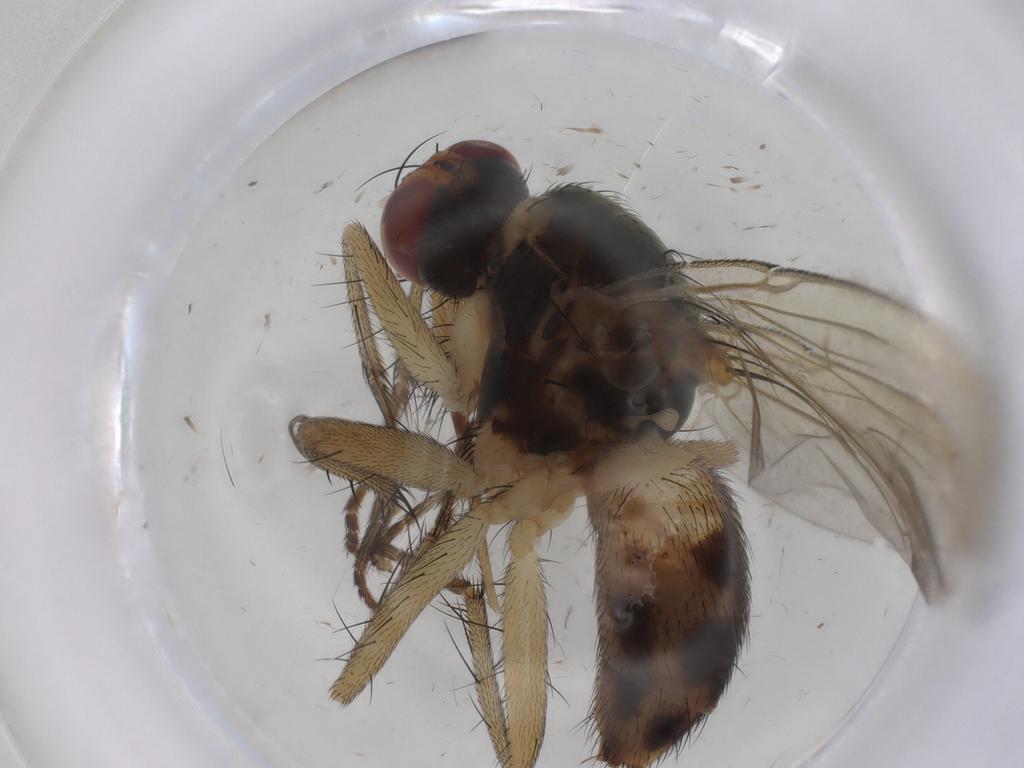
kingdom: Animalia
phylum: Arthropoda
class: Insecta
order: Diptera
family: Muscidae
